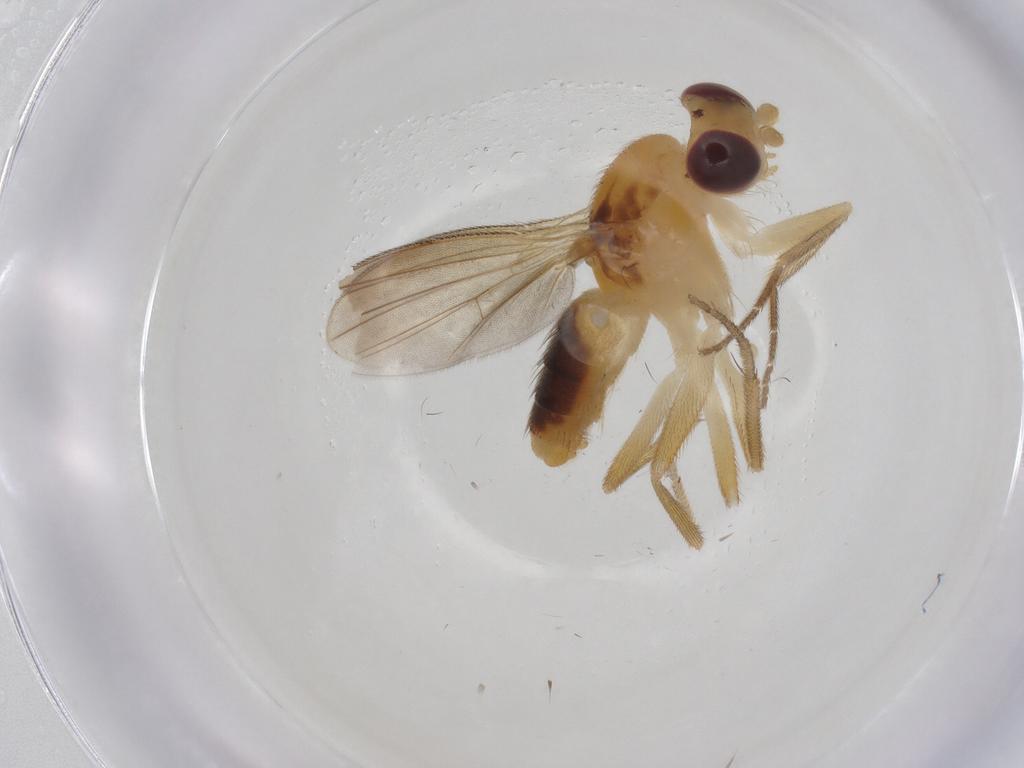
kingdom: Animalia
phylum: Arthropoda
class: Insecta
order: Diptera
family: Agromyzidae
